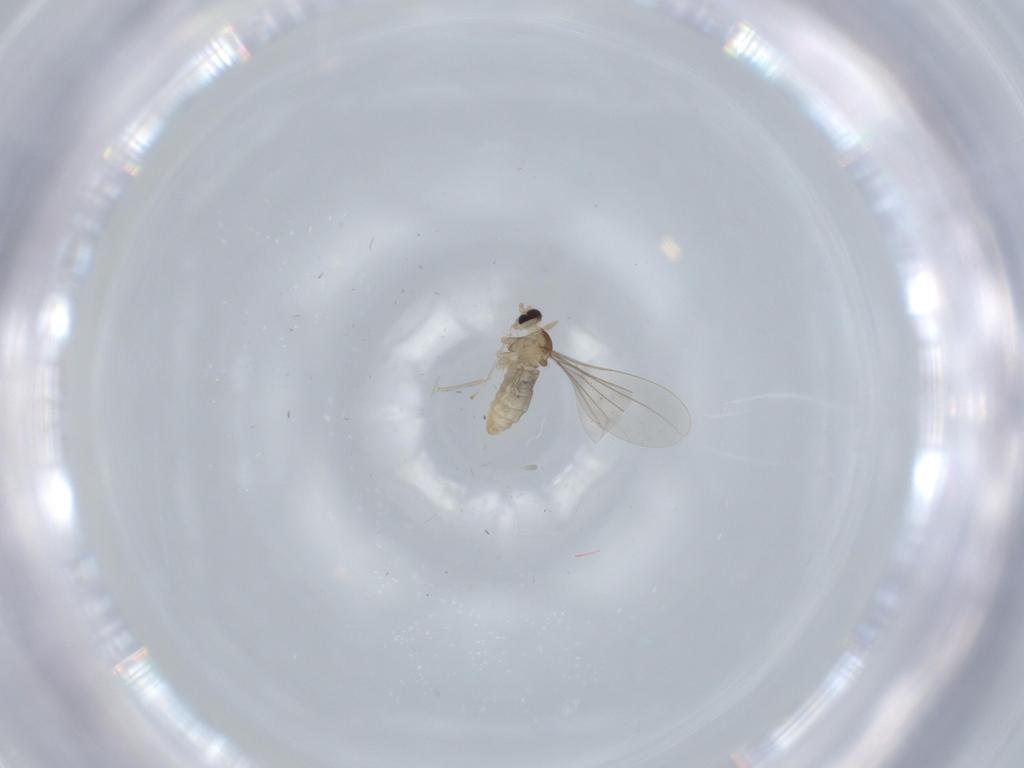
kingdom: Animalia
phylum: Arthropoda
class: Insecta
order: Diptera
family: Cecidomyiidae
